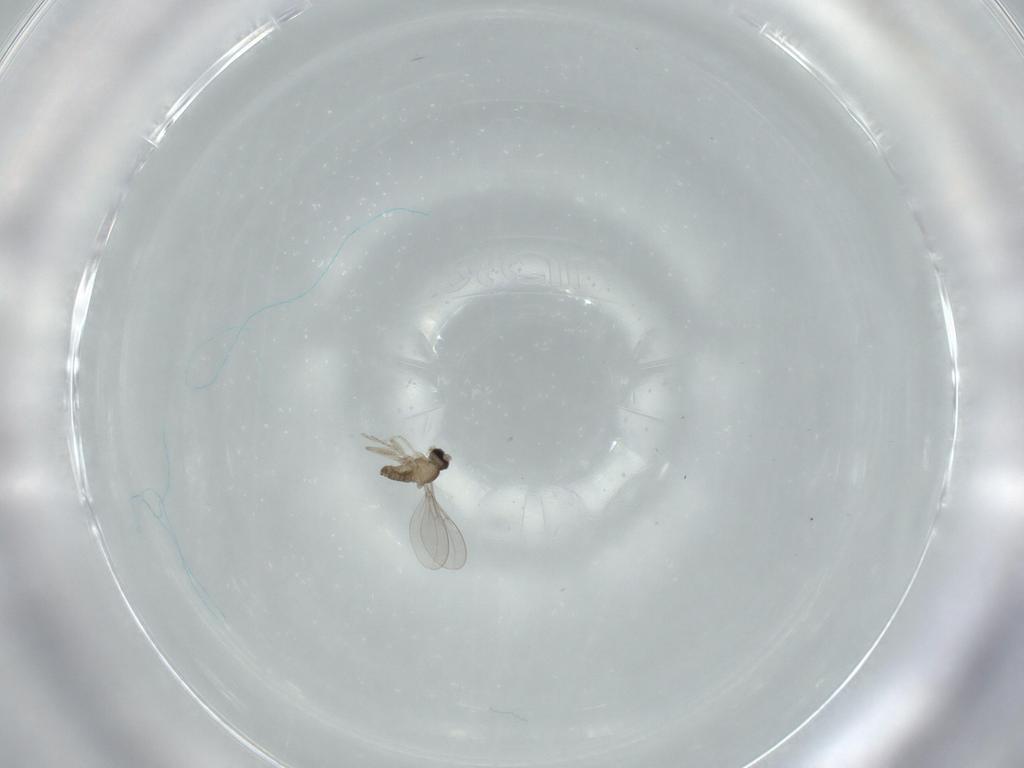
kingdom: Animalia
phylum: Arthropoda
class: Insecta
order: Diptera
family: Cecidomyiidae
